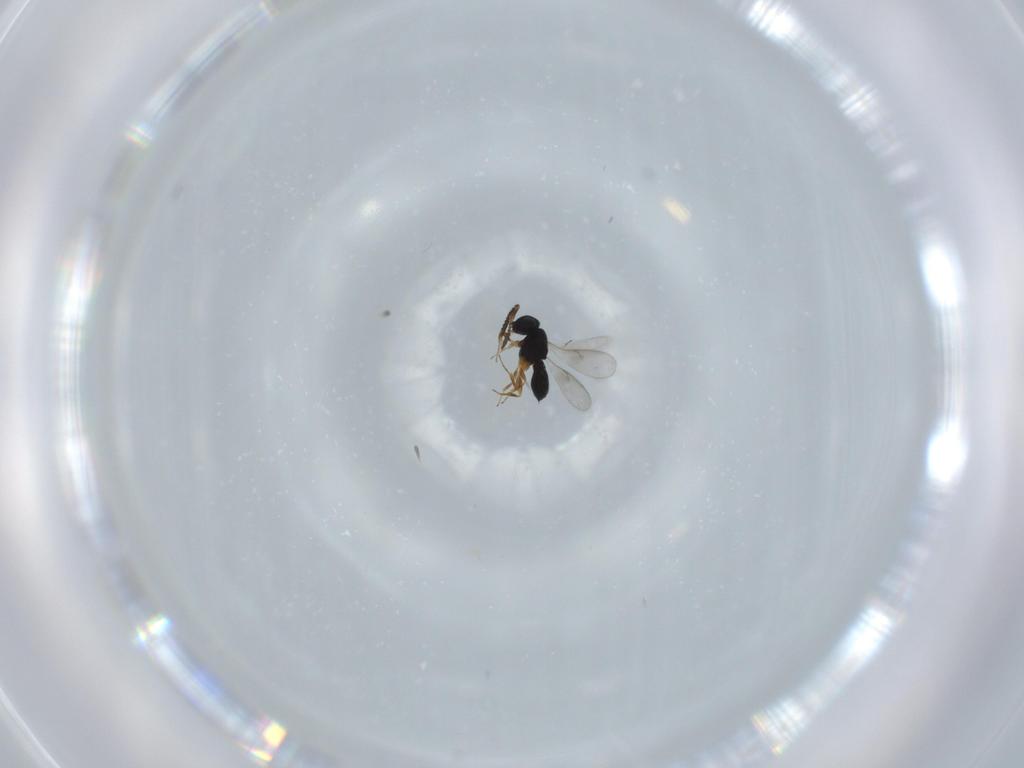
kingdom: Animalia
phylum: Arthropoda
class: Insecta
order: Hymenoptera
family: Scelionidae
